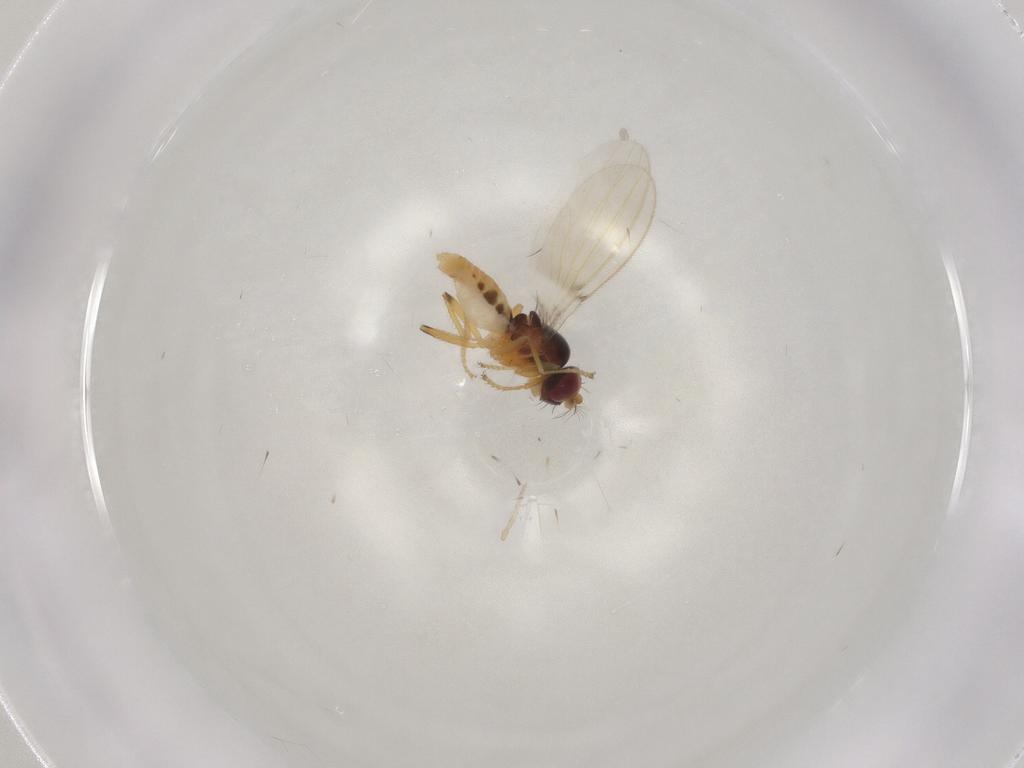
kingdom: Animalia
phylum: Arthropoda
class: Insecta
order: Diptera
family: Periscelididae
